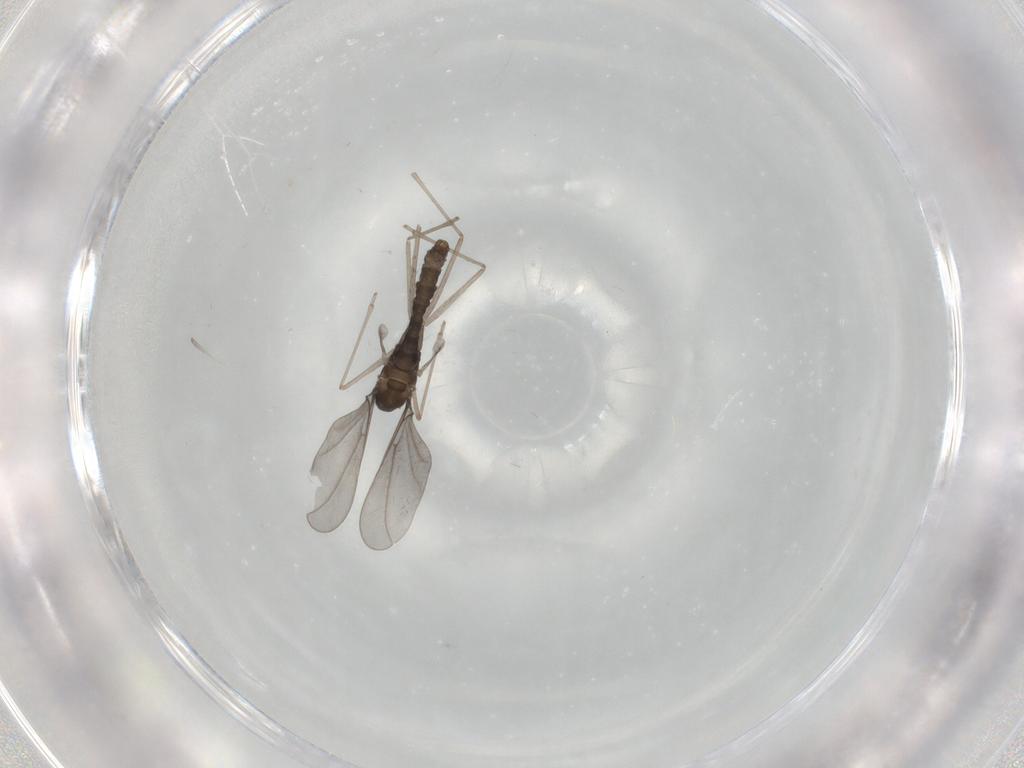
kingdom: Animalia
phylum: Arthropoda
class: Insecta
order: Diptera
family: Cecidomyiidae
